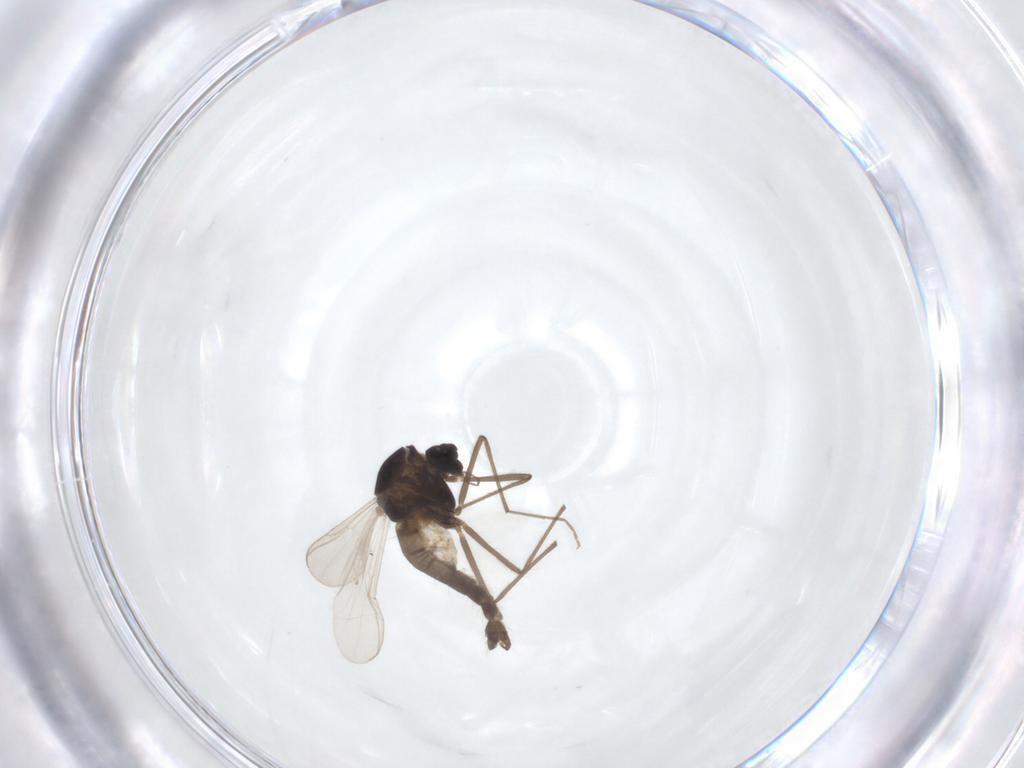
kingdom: Animalia
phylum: Arthropoda
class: Insecta
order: Diptera
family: Chironomidae
